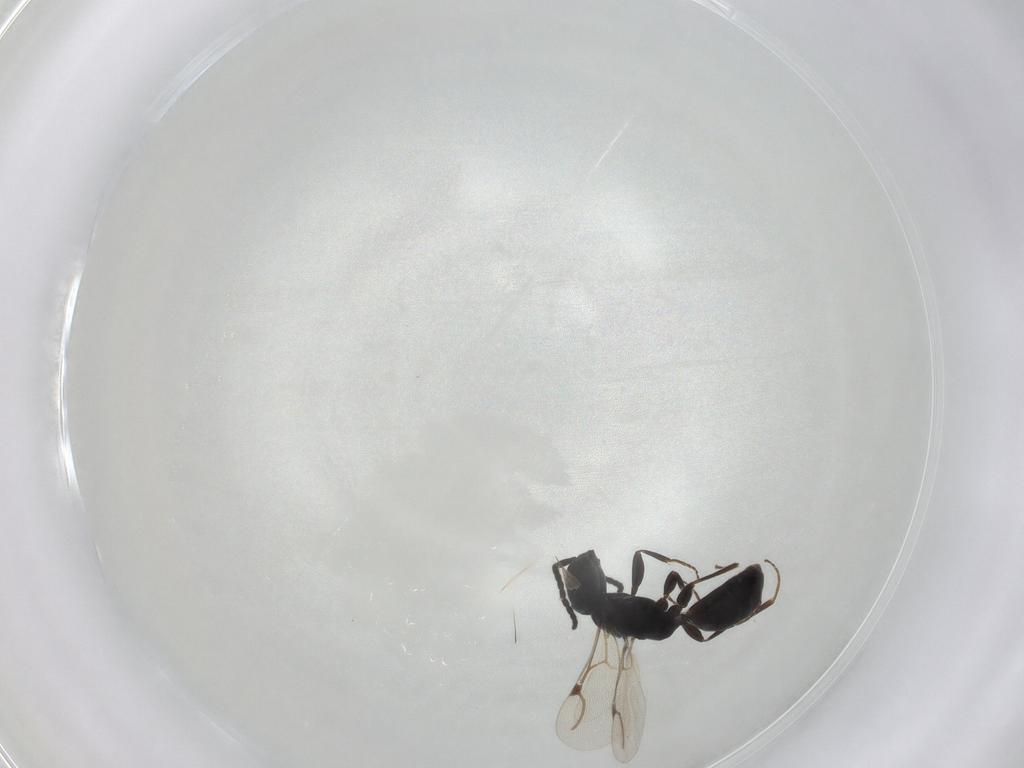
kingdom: Animalia
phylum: Arthropoda
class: Insecta
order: Hymenoptera
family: Bethylidae
